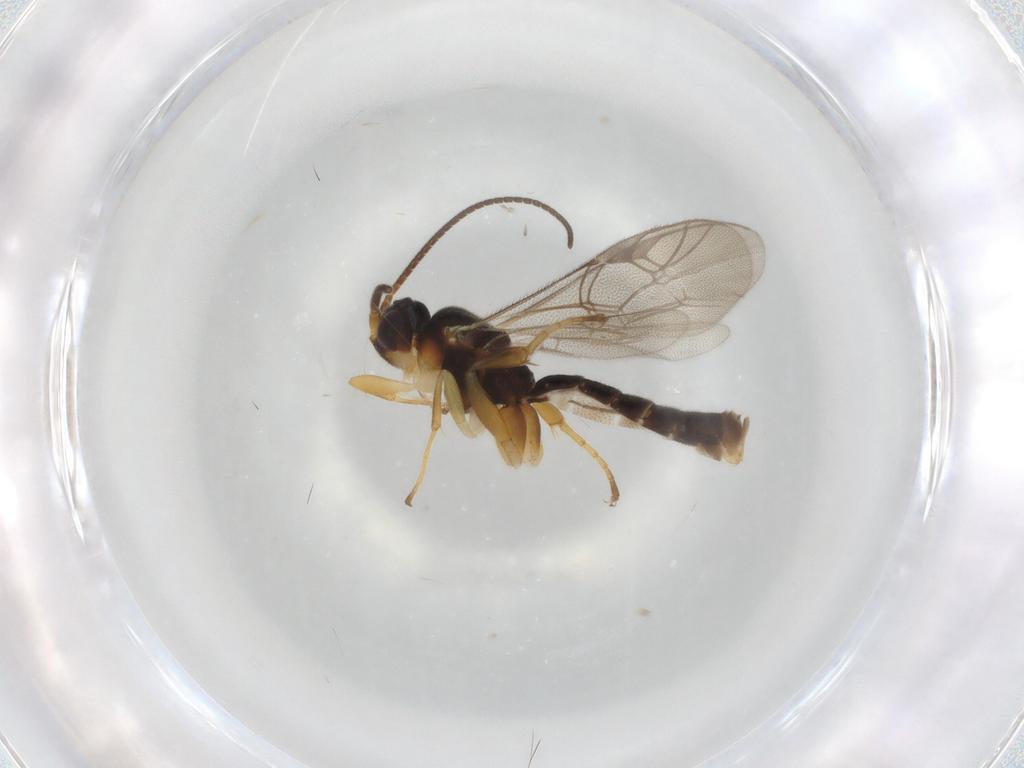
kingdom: Animalia
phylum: Arthropoda
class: Insecta
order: Hymenoptera
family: Ichneumonidae
